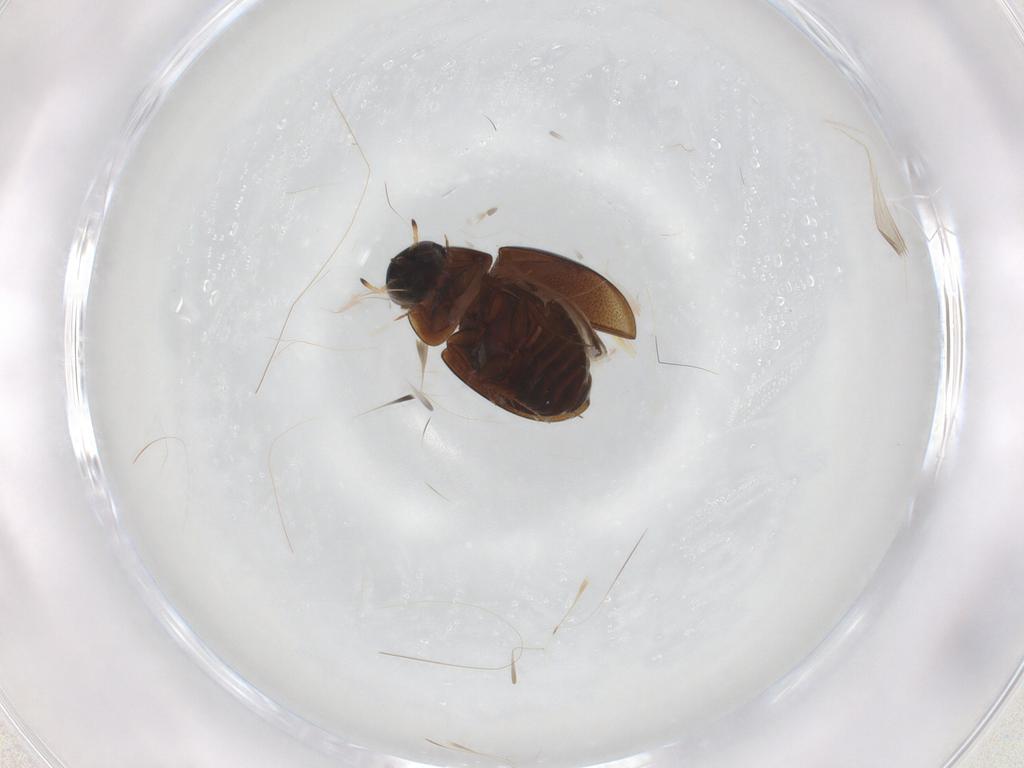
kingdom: Animalia
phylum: Arthropoda
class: Insecta
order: Coleoptera
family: Staphylinidae
